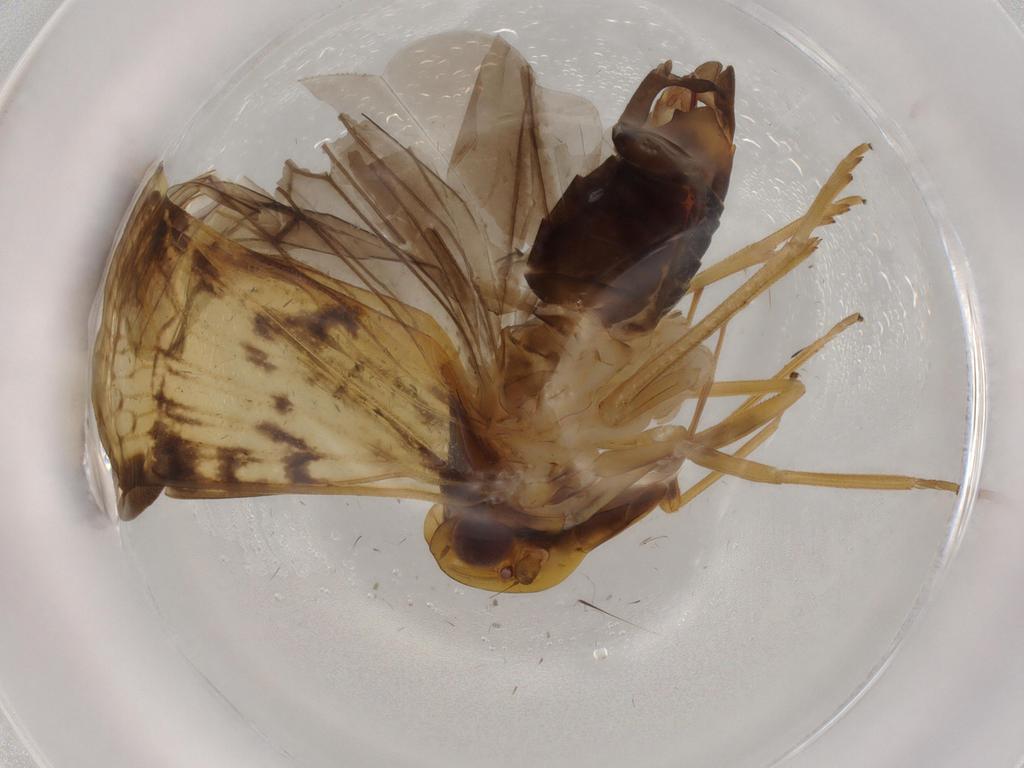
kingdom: Animalia
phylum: Arthropoda
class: Insecta
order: Hemiptera
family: Cixiidae
